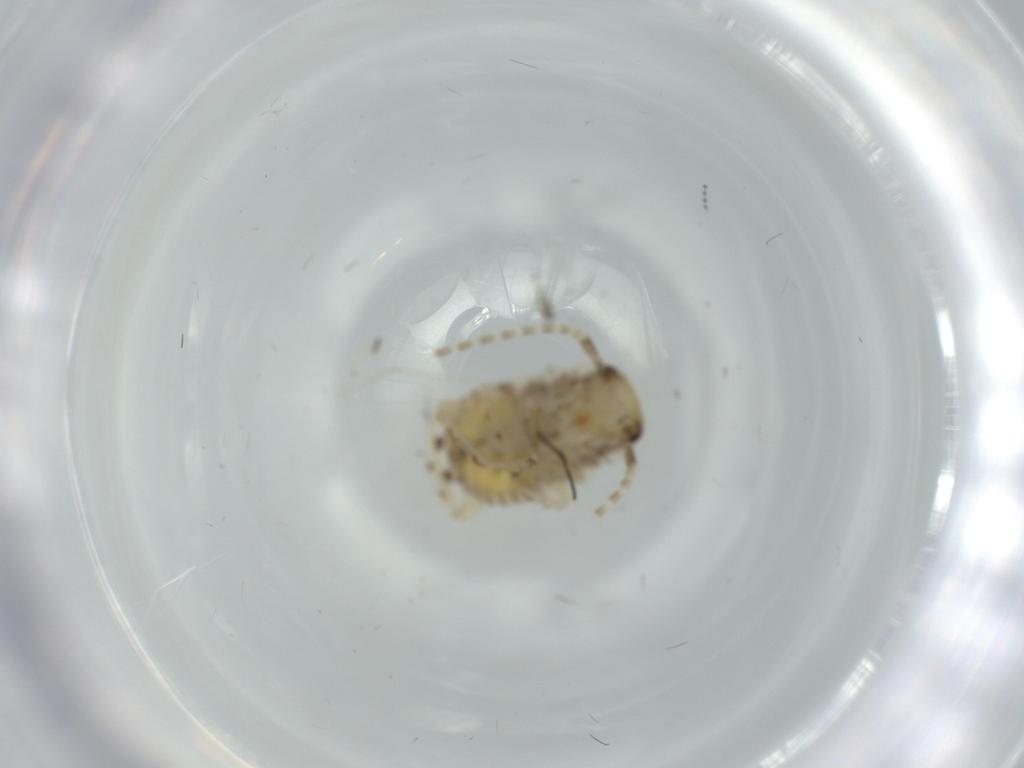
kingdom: Animalia
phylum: Arthropoda
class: Insecta
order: Blattodea
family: Ectobiidae
